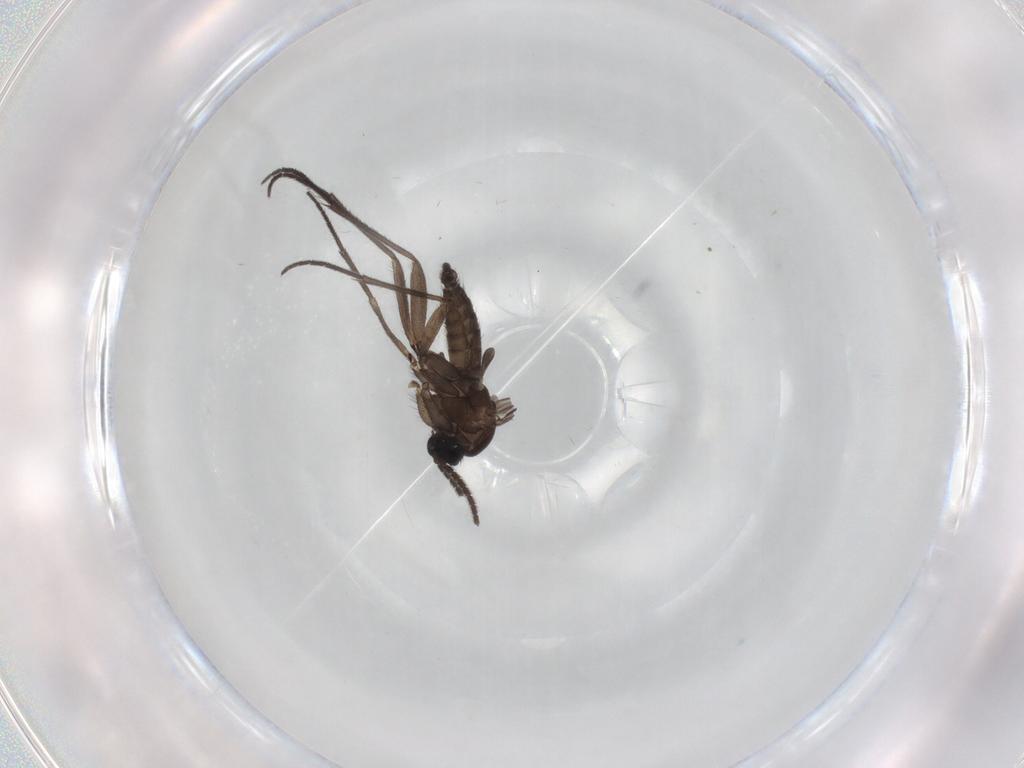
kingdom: Animalia
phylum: Arthropoda
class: Insecta
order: Diptera
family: Sciaridae
